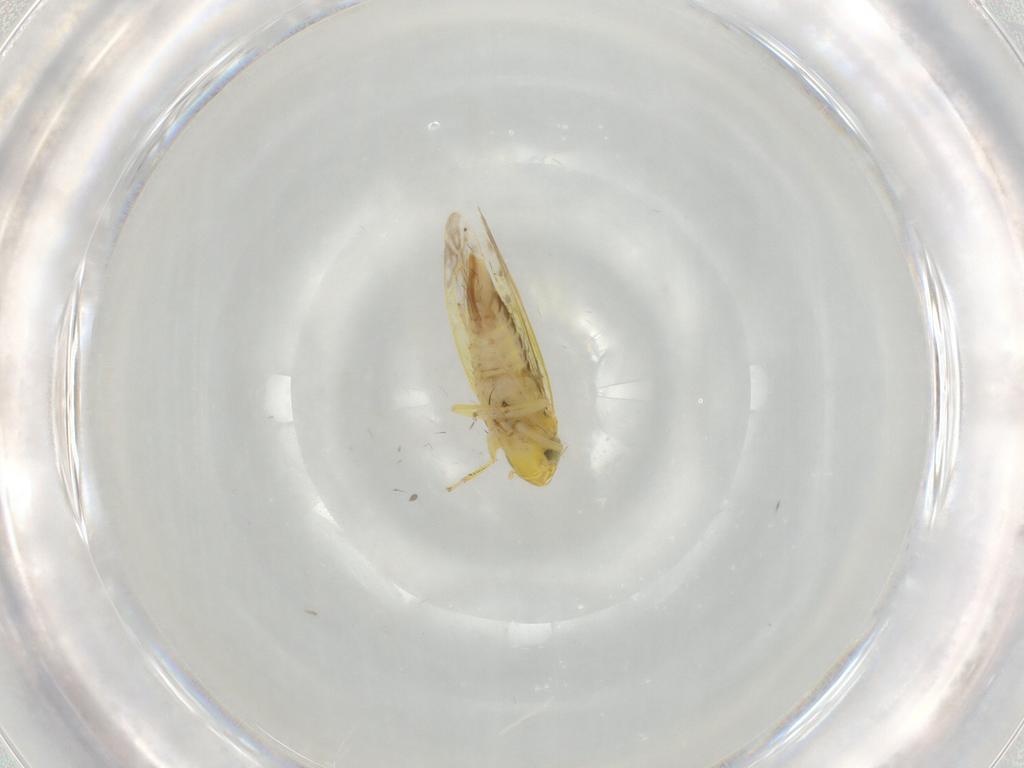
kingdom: Animalia
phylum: Arthropoda
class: Insecta
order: Hemiptera
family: Cicadellidae
